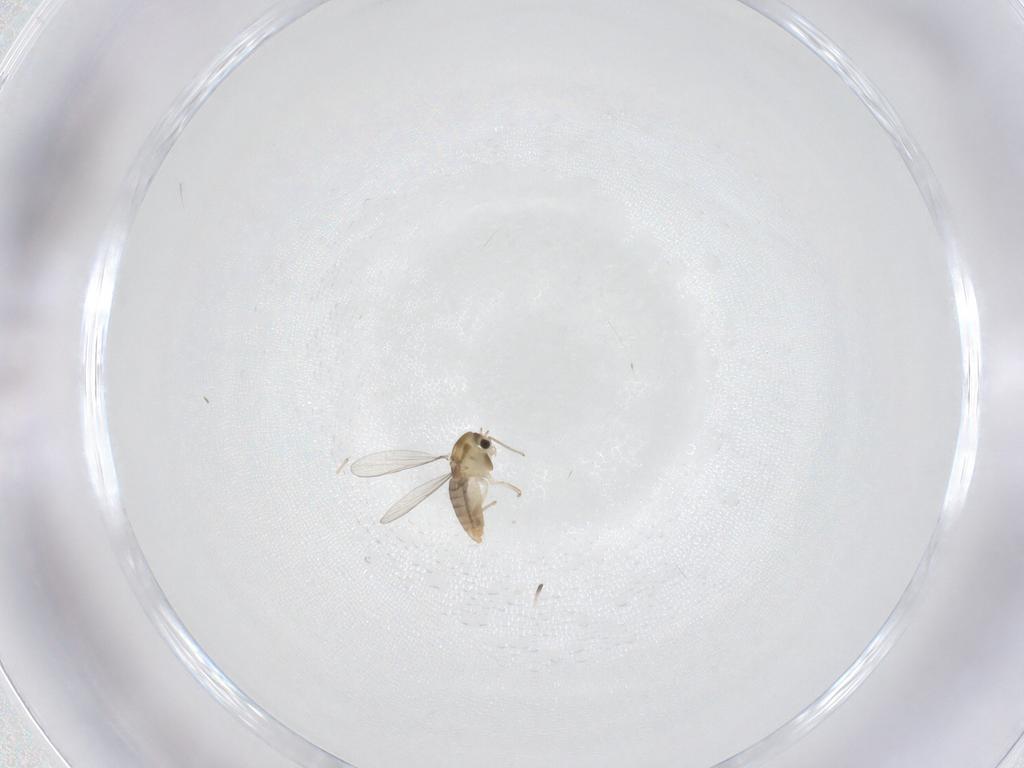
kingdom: Animalia
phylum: Arthropoda
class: Insecta
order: Diptera
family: Chironomidae
